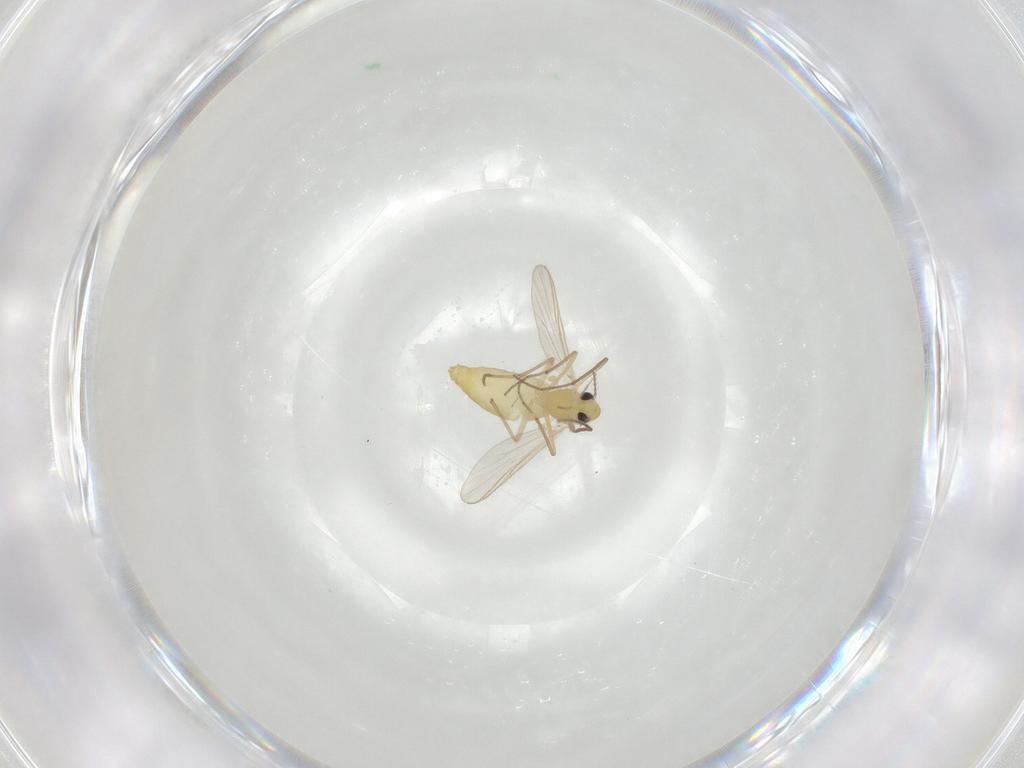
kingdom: Animalia
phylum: Arthropoda
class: Insecta
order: Diptera
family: Chironomidae
